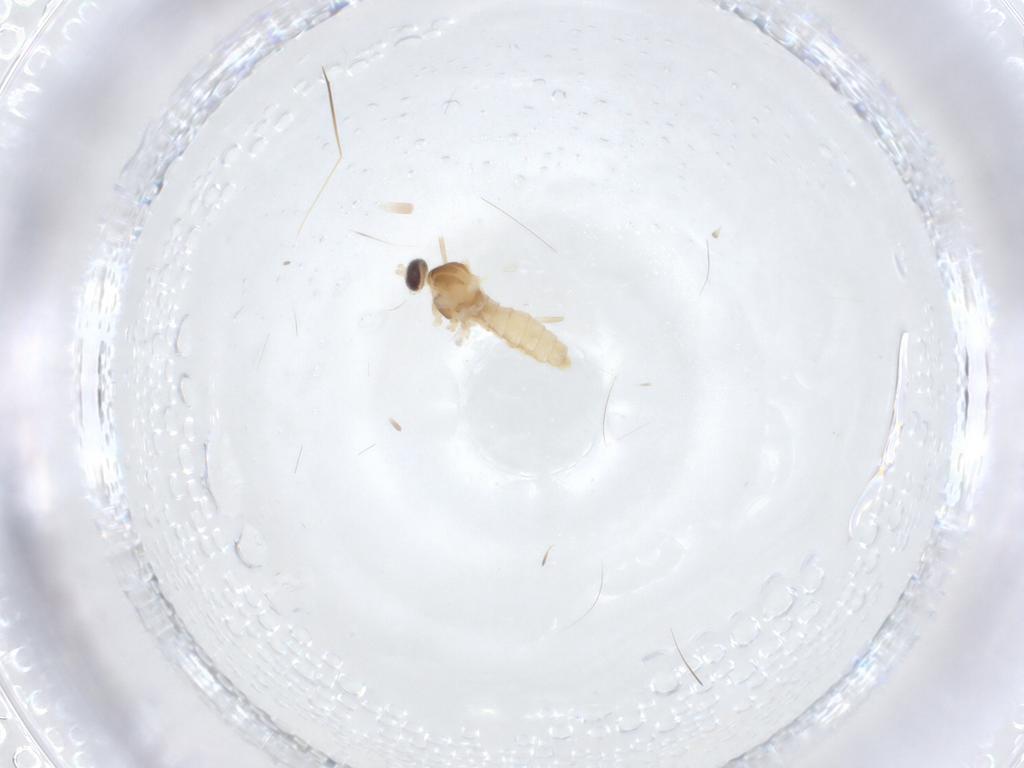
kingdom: Animalia
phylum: Arthropoda
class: Insecta
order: Diptera
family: Cecidomyiidae
